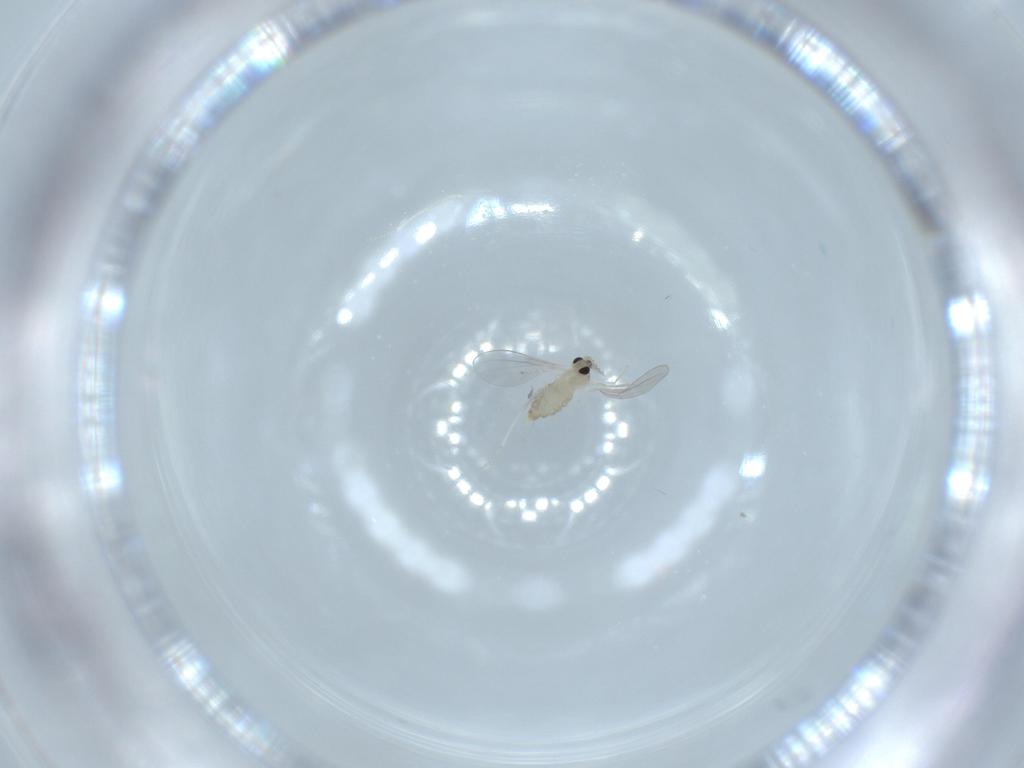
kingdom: Animalia
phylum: Arthropoda
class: Insecta
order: Diptera
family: Cecidomyiidae
